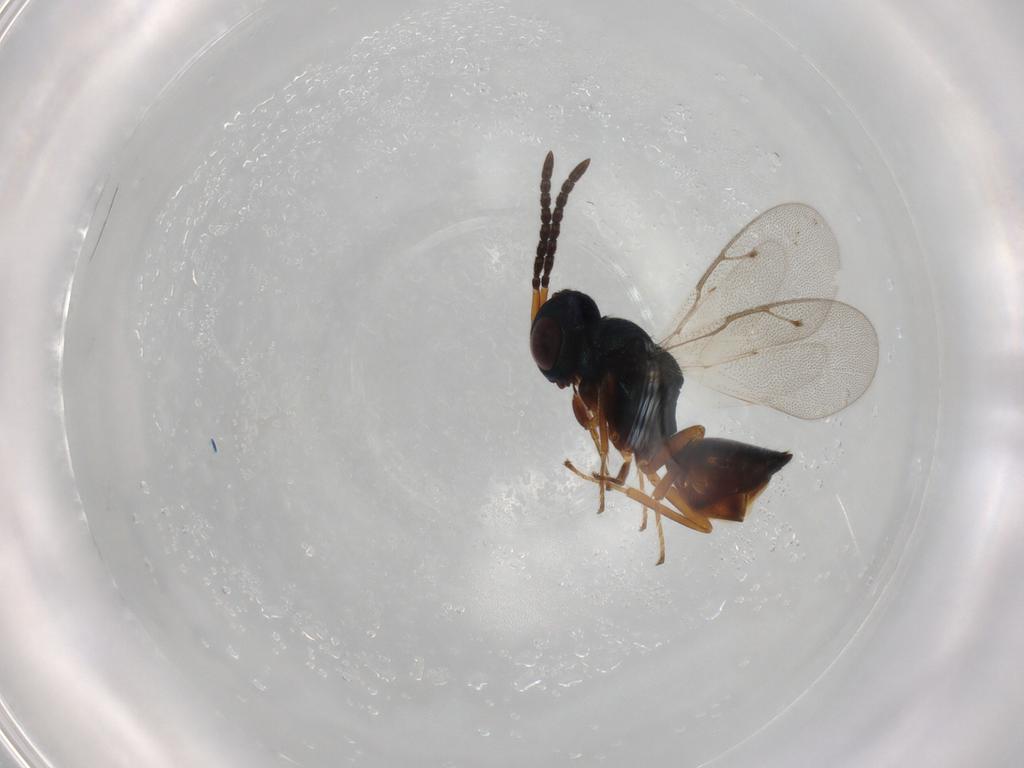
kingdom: Animalia
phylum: Arthropoda
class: Insecta
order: Hymenoptera
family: Pteromalidae
